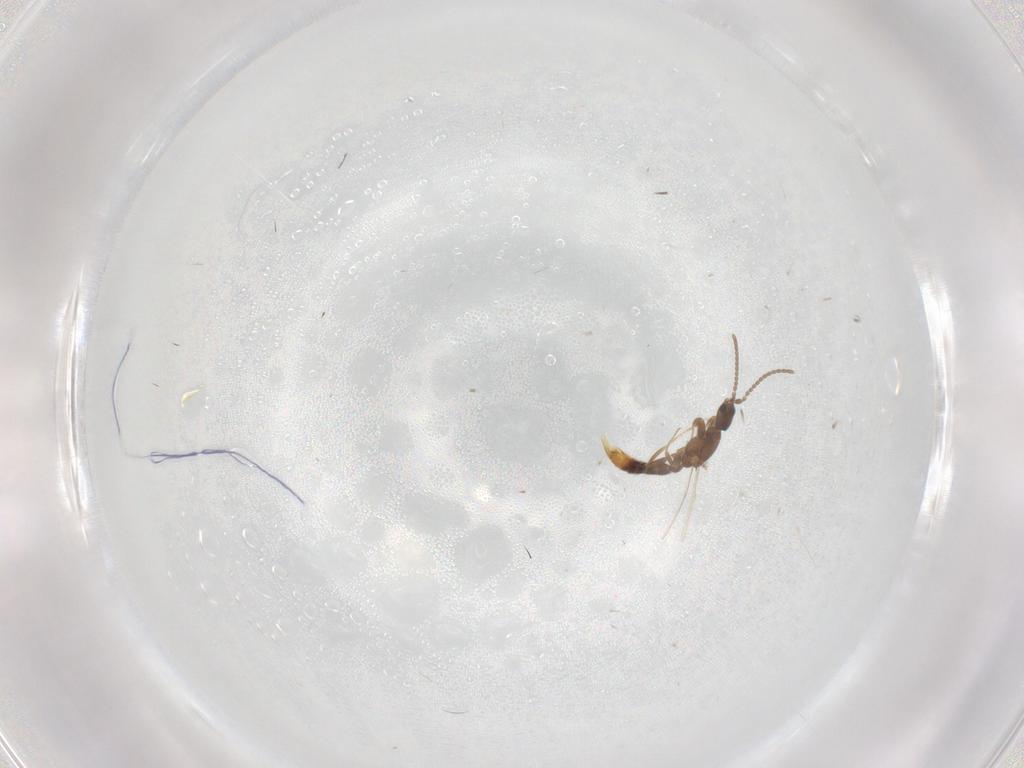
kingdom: Animalia
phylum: Arthropoda
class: Insecta
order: Hymenoptera
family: Formicidae
